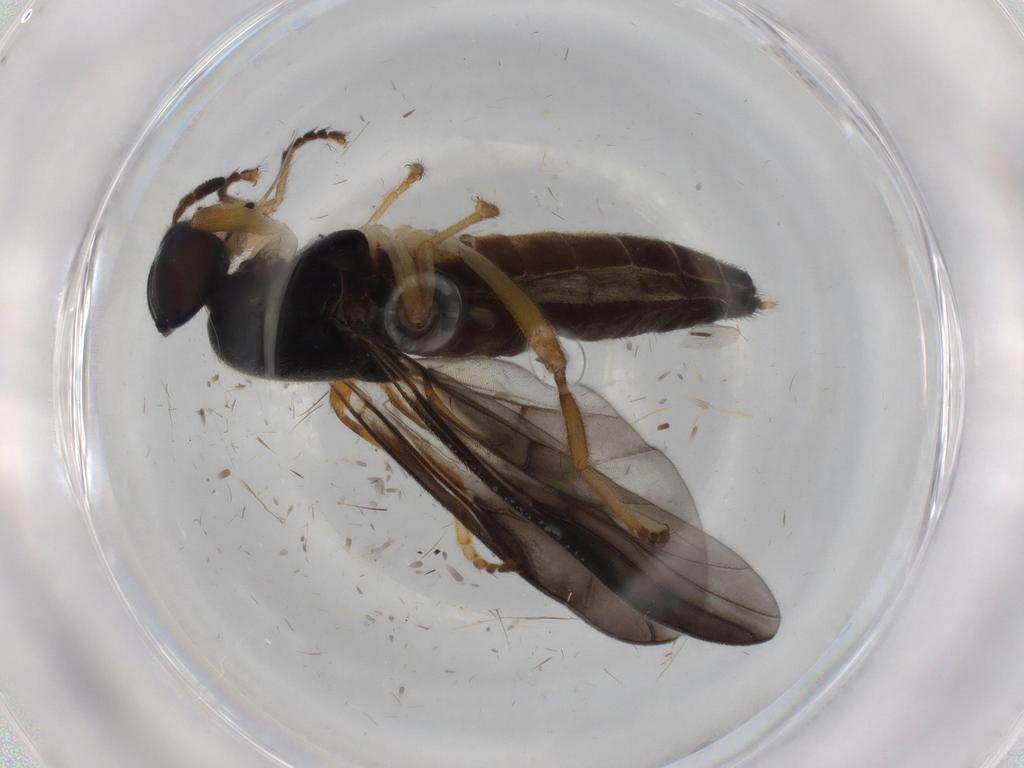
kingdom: Animalia
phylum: Arthropoda
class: Insecta
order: Diptera
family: Stratiomyidae
